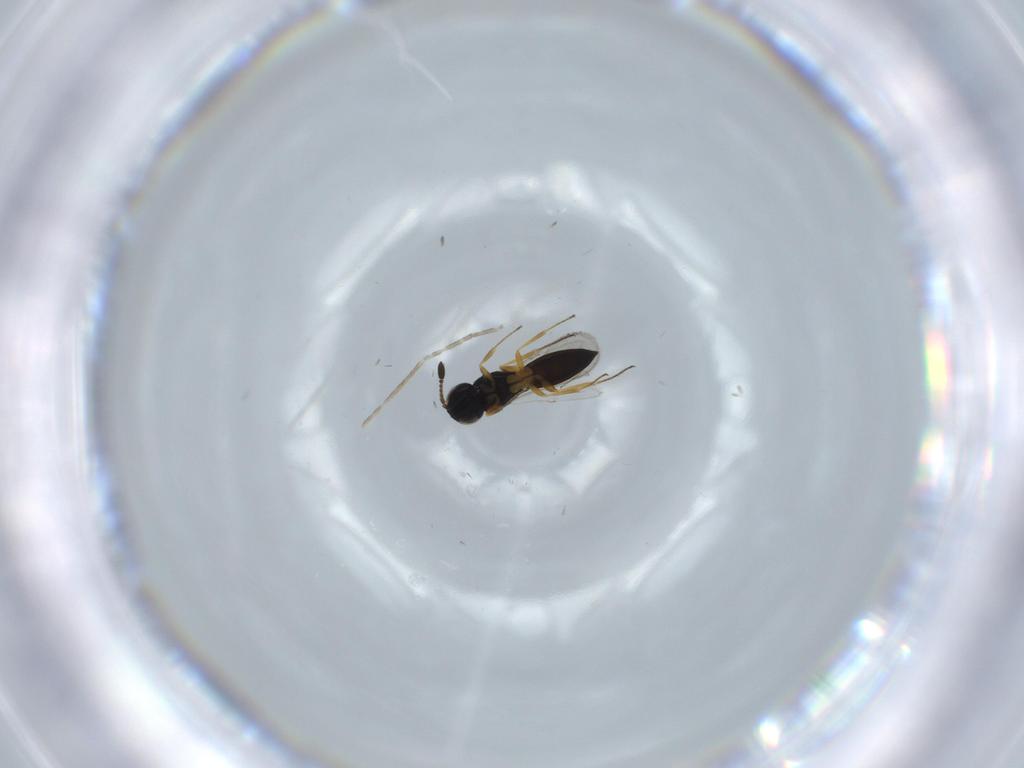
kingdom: Animalia
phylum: Arthropoda
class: Insecta
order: Hymenoptera
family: Scelionidae
